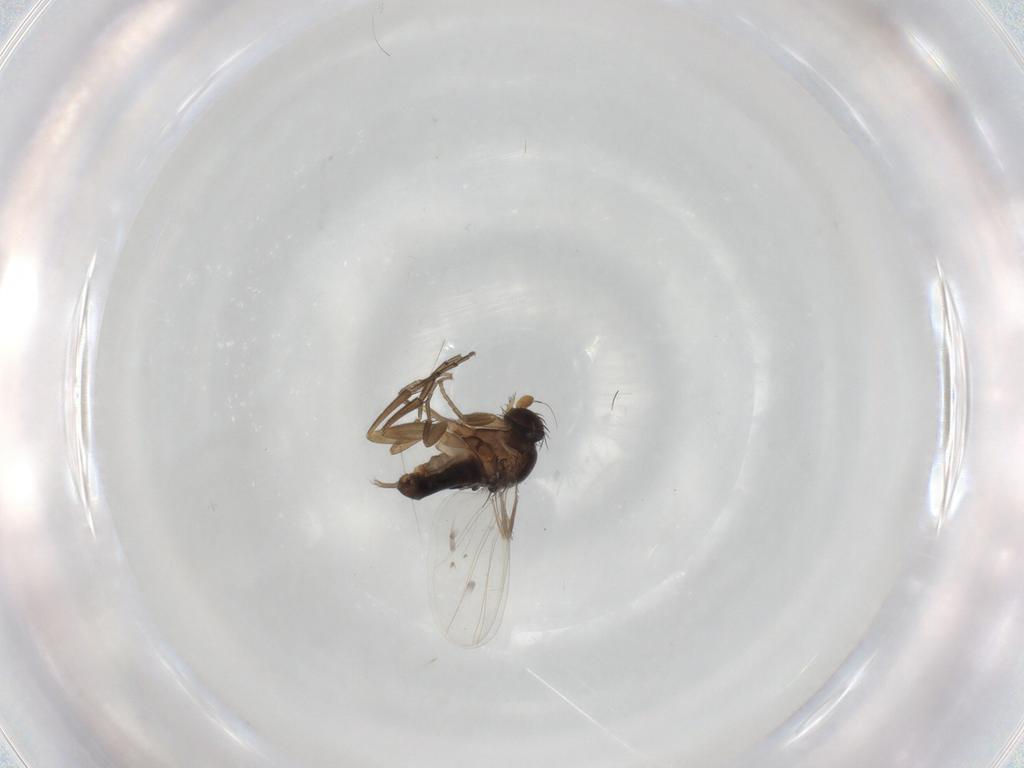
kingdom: Animalia
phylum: Arthropoda
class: Insecta
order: Diptera
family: Phoridae
